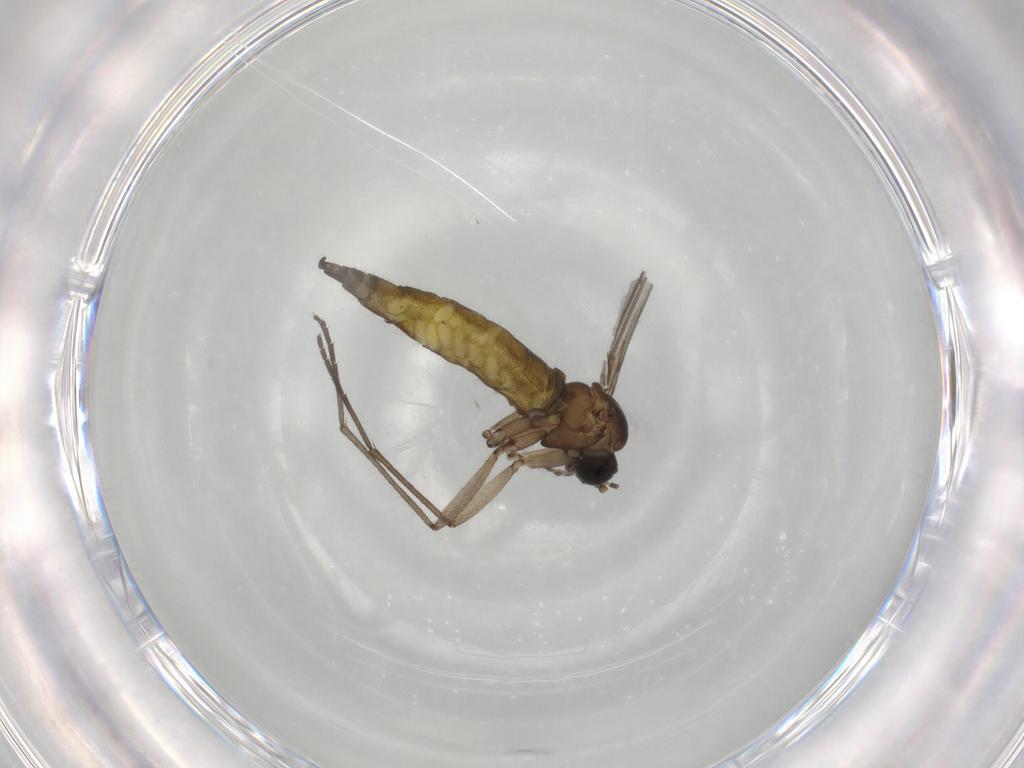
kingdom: Animalia
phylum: Arthropoda
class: Insecta
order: Diptera
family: Sciaridae
